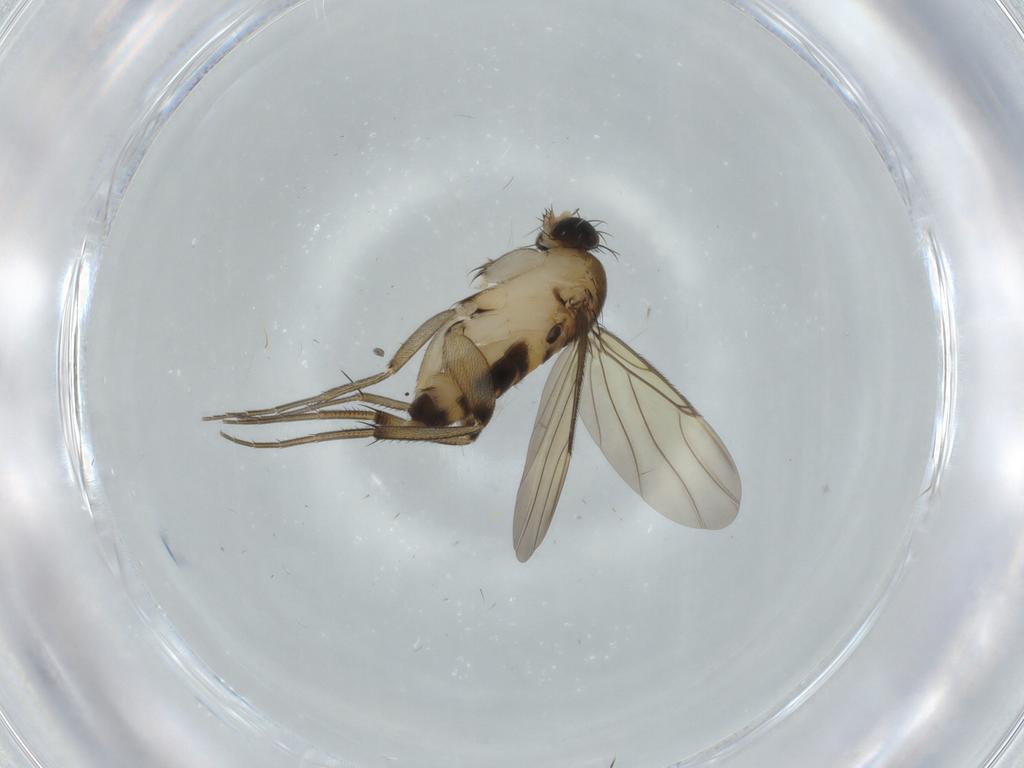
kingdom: Animalia
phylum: Arthropoda
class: Insecta
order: Diptera
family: Phoridae
